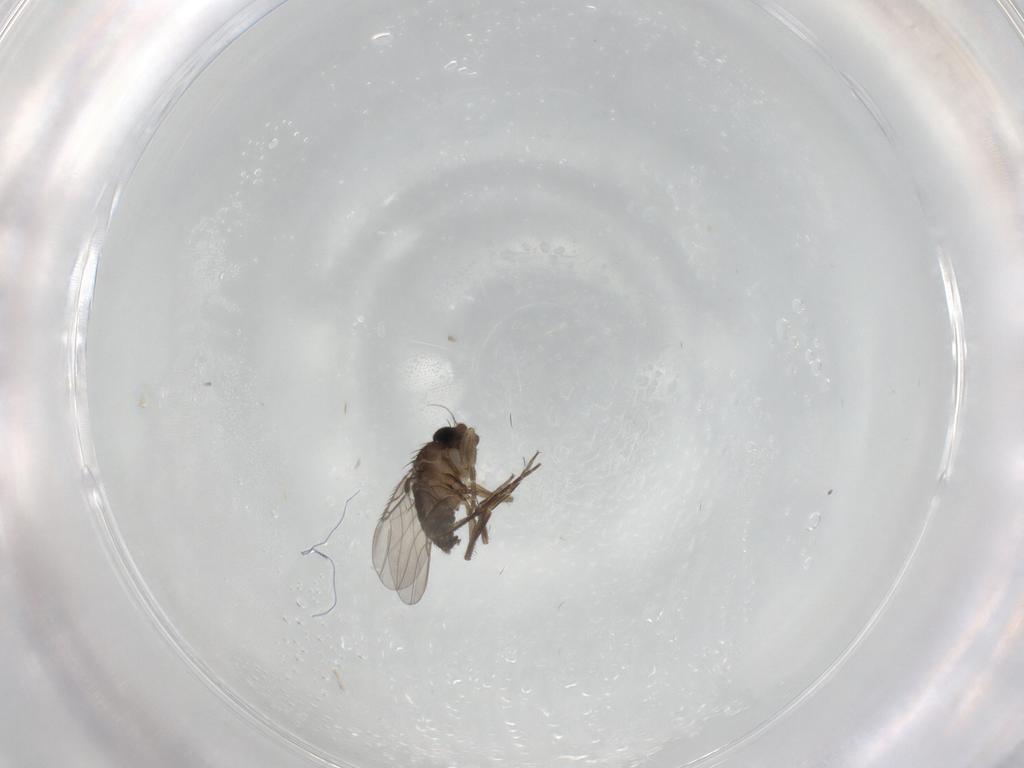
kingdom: Animalia
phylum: Arthropoda
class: Insecta
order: Diptera
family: Phoridae
